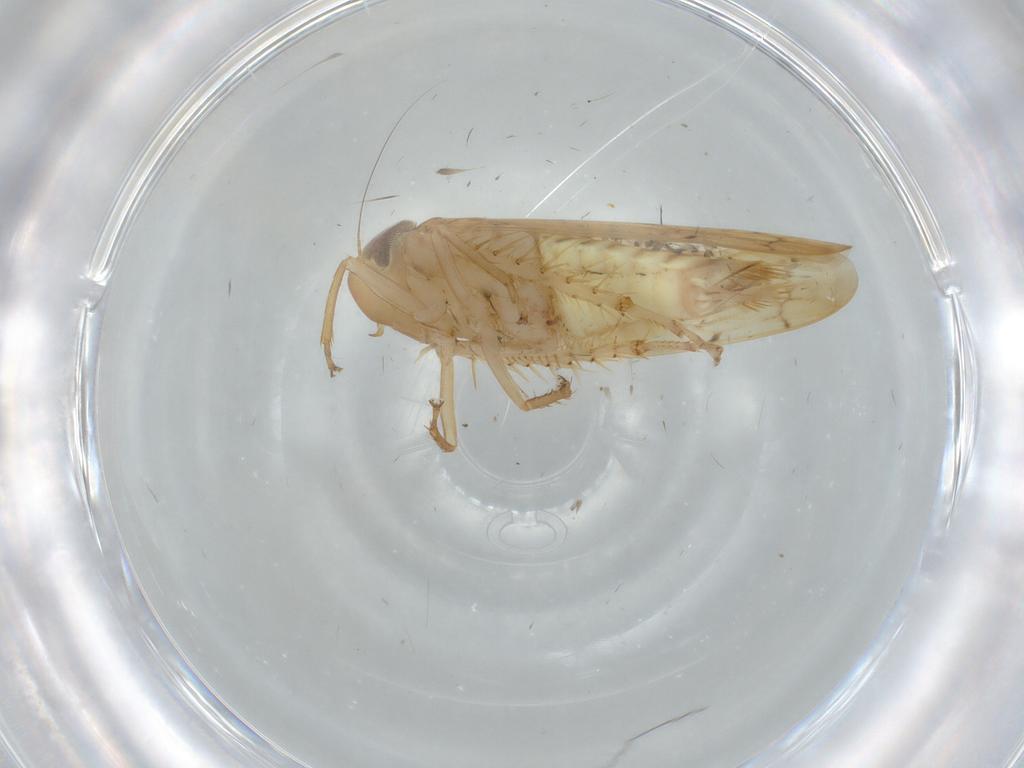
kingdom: Animalia
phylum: Arthropoda
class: Insecta
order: Hemiptera
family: Cicadellidae
